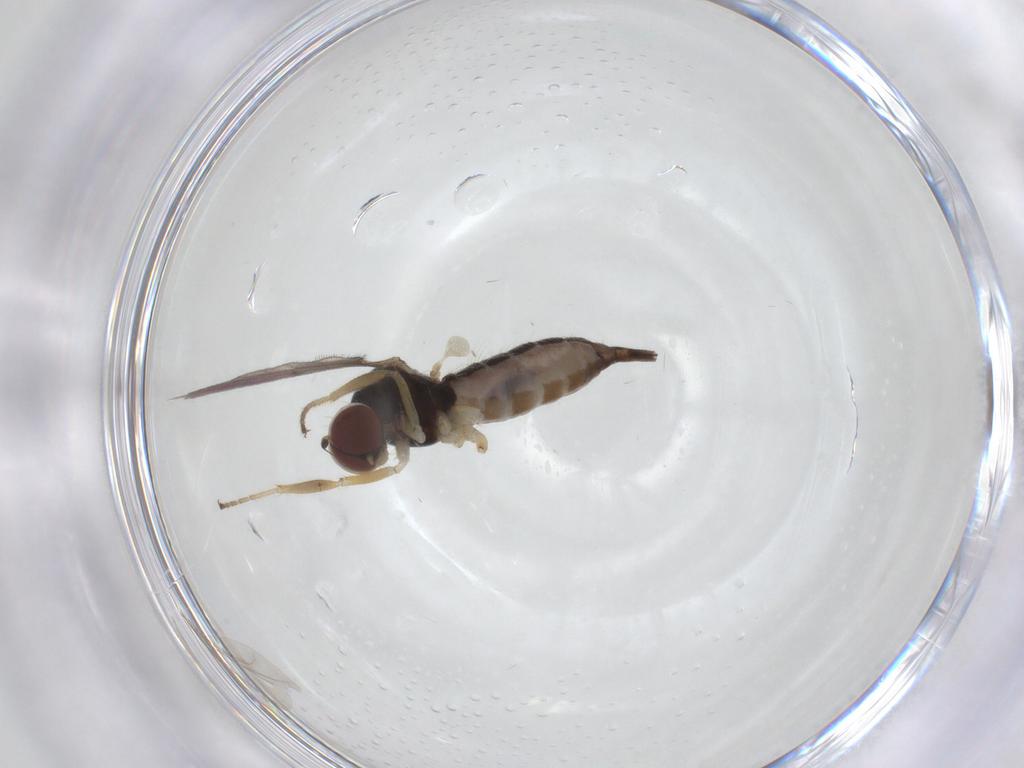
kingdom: Animalia
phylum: Arthropoda
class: Insecta
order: Diptera
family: Hybotidae
